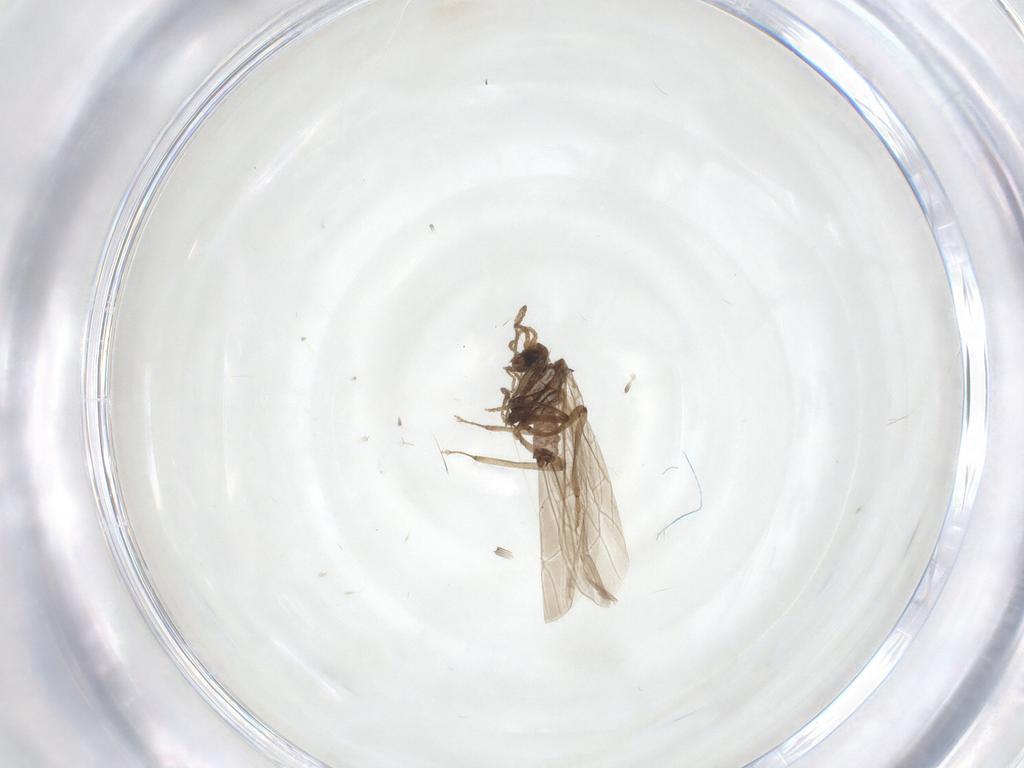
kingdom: Animalia
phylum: Arthropoda
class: Insecta
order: Neuroptera
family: Coniopterygidae
